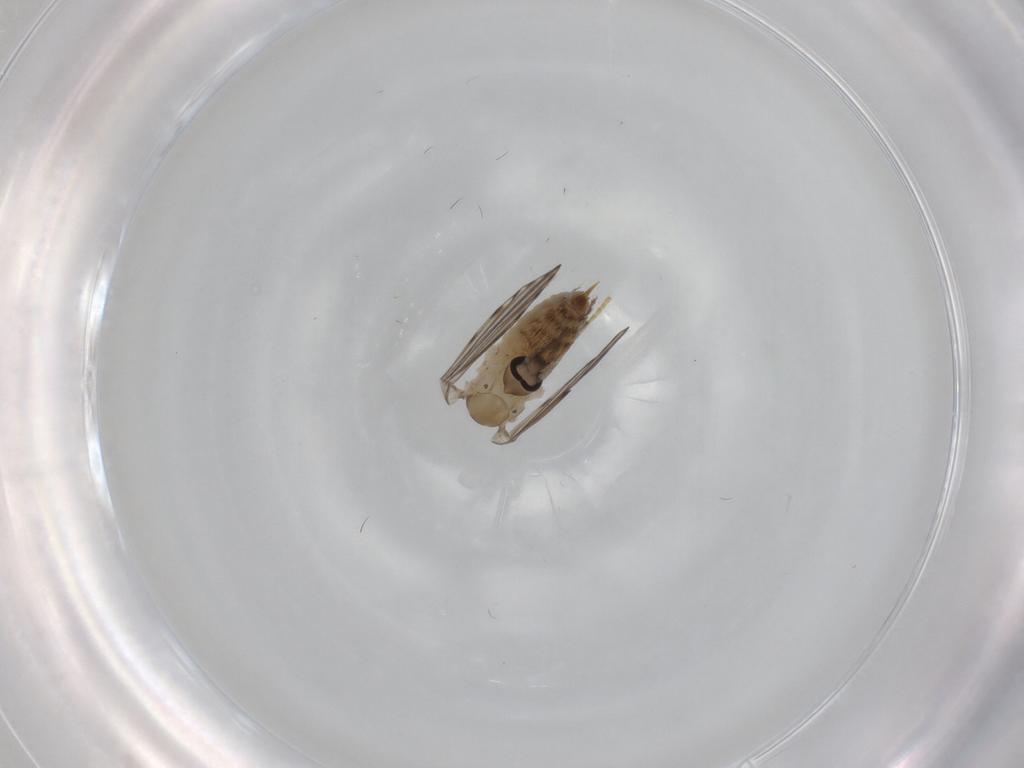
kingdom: Animalia
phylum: Arthropoda
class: Insecta
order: Diptera
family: Psychodidae
